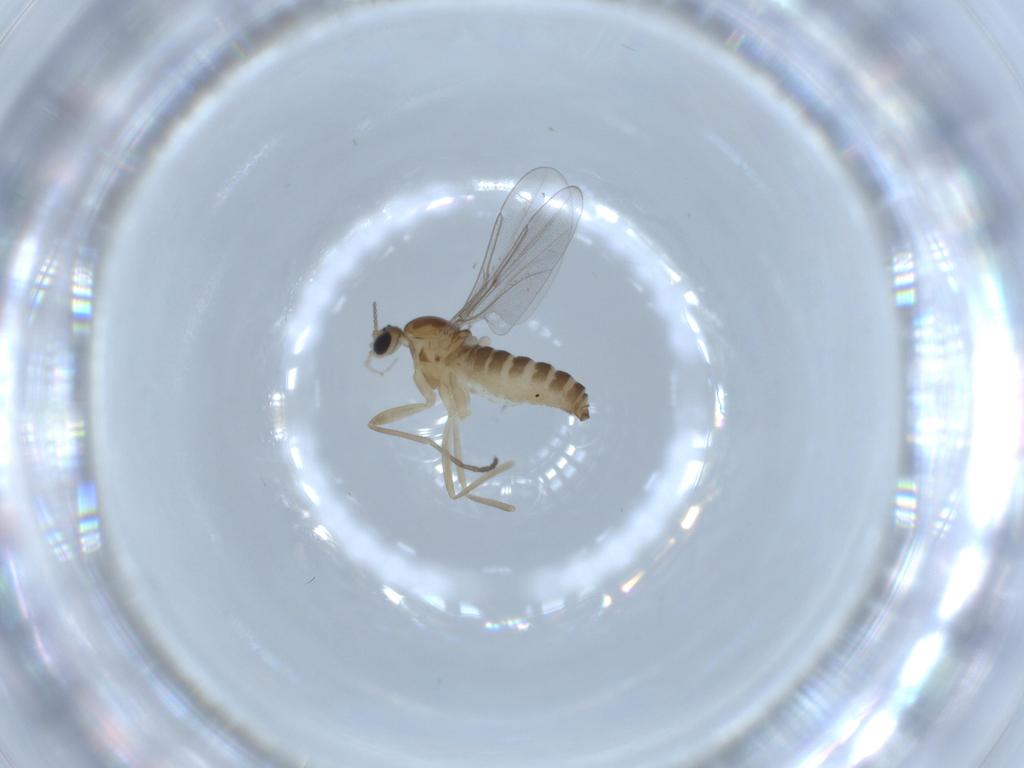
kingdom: Animalia
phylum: Arthropoda
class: Insecta
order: Diptera
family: Cecidomyiidae
